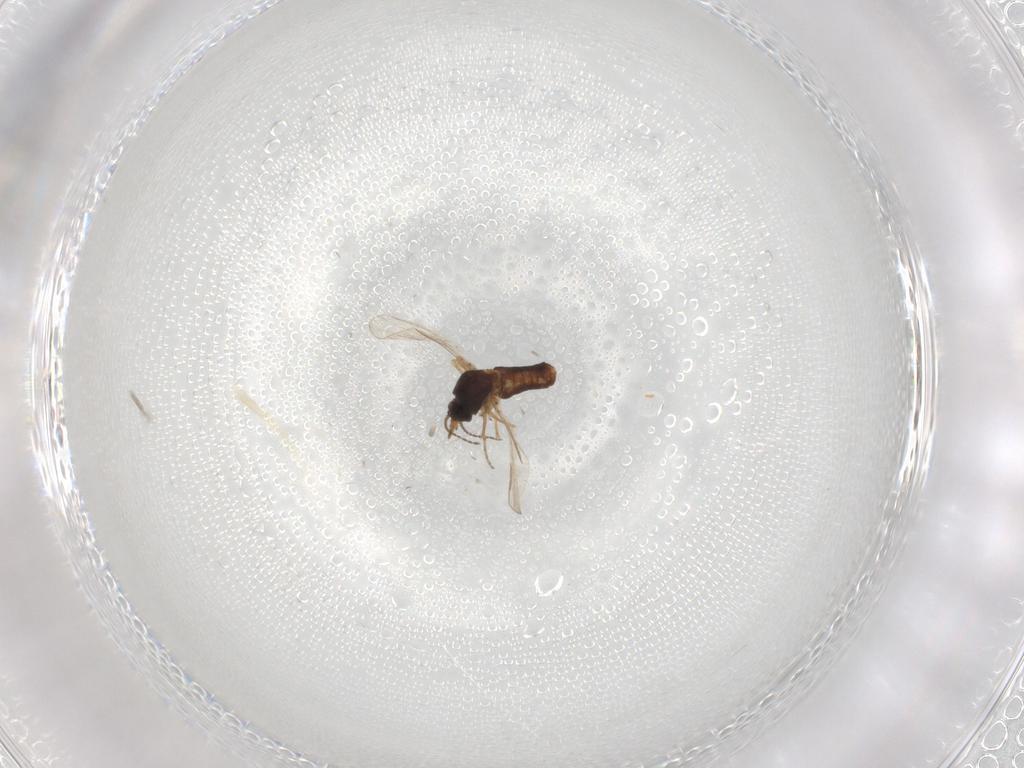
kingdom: Animalia
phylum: Arthropoda
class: Insecta
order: Diptera
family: Ceratopogonidae
